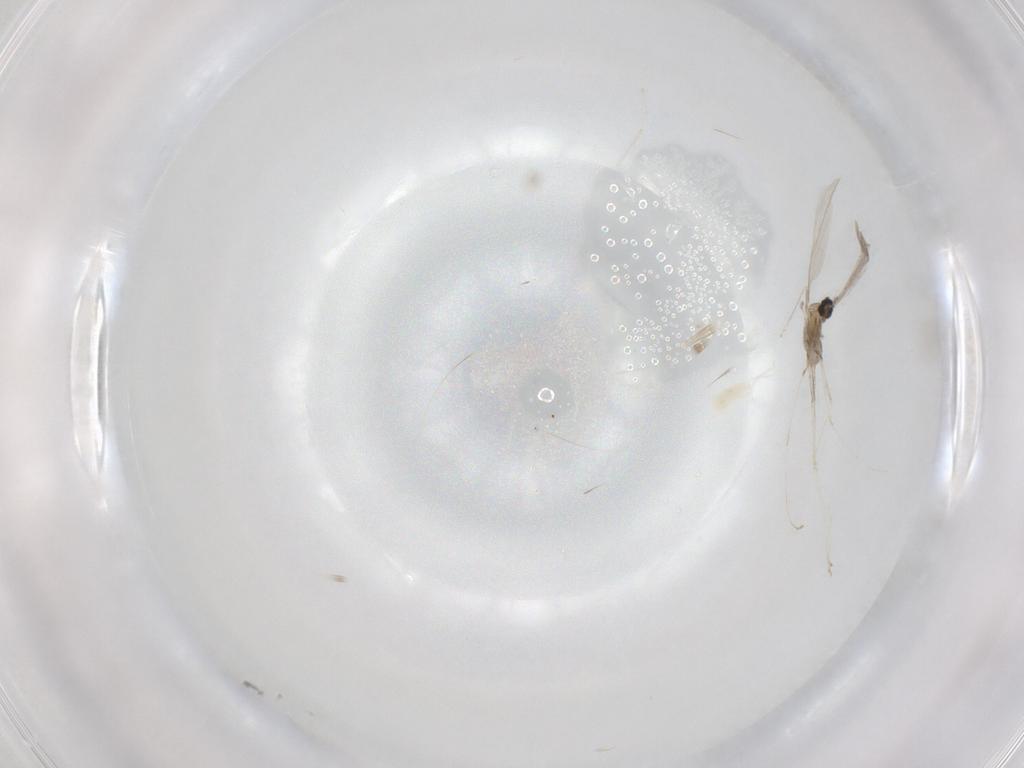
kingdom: Animalia
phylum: Arthropoda
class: Insecta
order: Diptera
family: Cecidomyiidae
